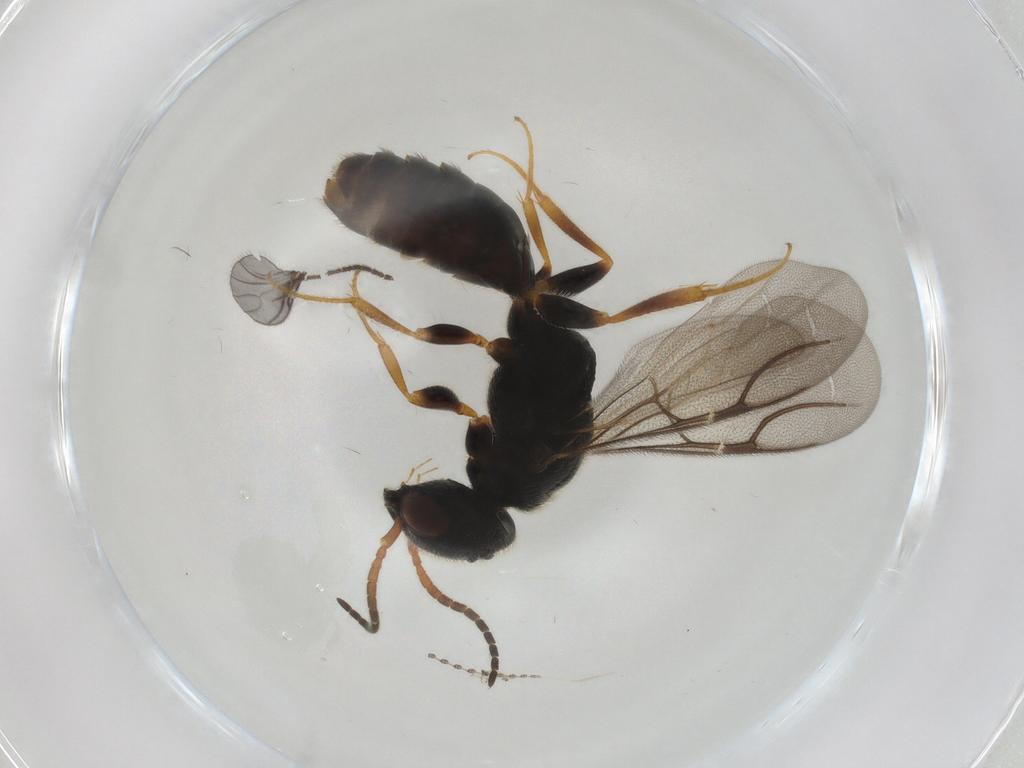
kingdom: Animalia
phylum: Arthropoda
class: Insecta
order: Hymenoptera
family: Bethylidae
